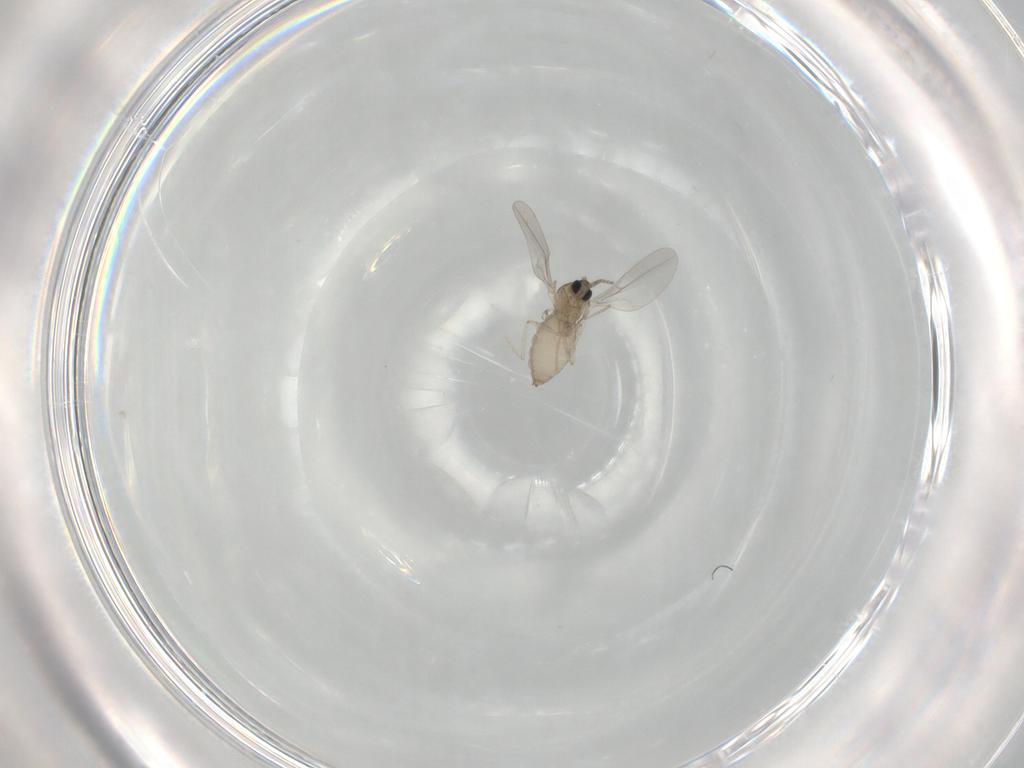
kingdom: Animalia
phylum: Arthropoda
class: Insecta
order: Diptera
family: Cecidomyiidae
